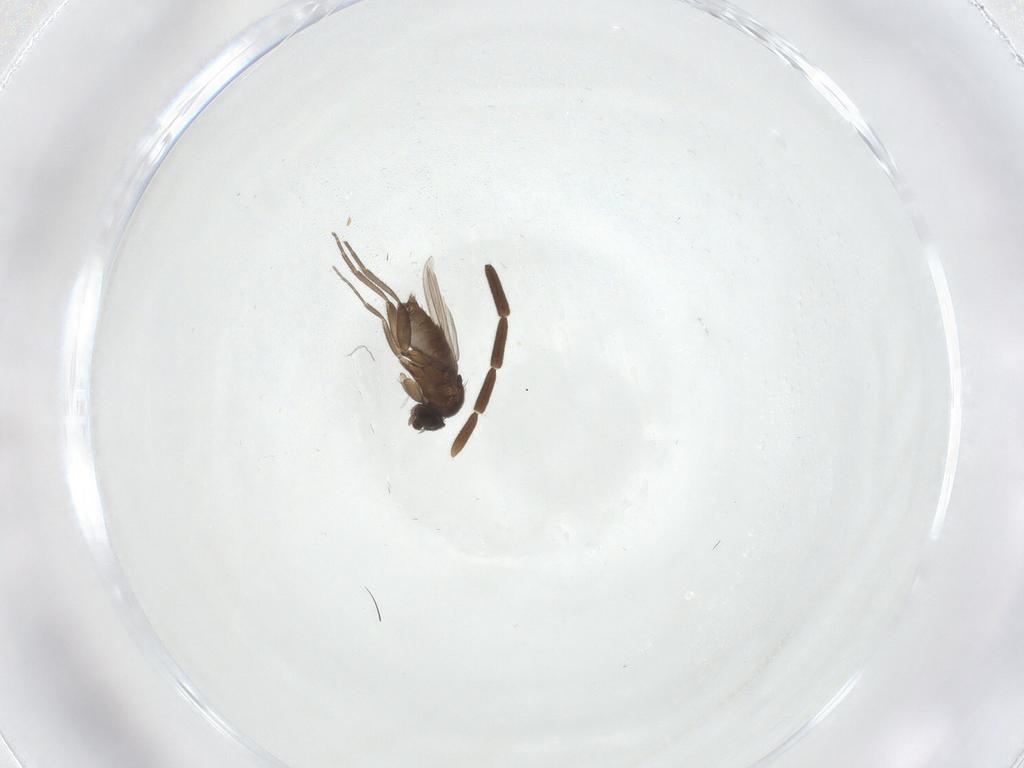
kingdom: Animalia
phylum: Arthropoda
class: Insecta
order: Diptera
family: Phoridae
